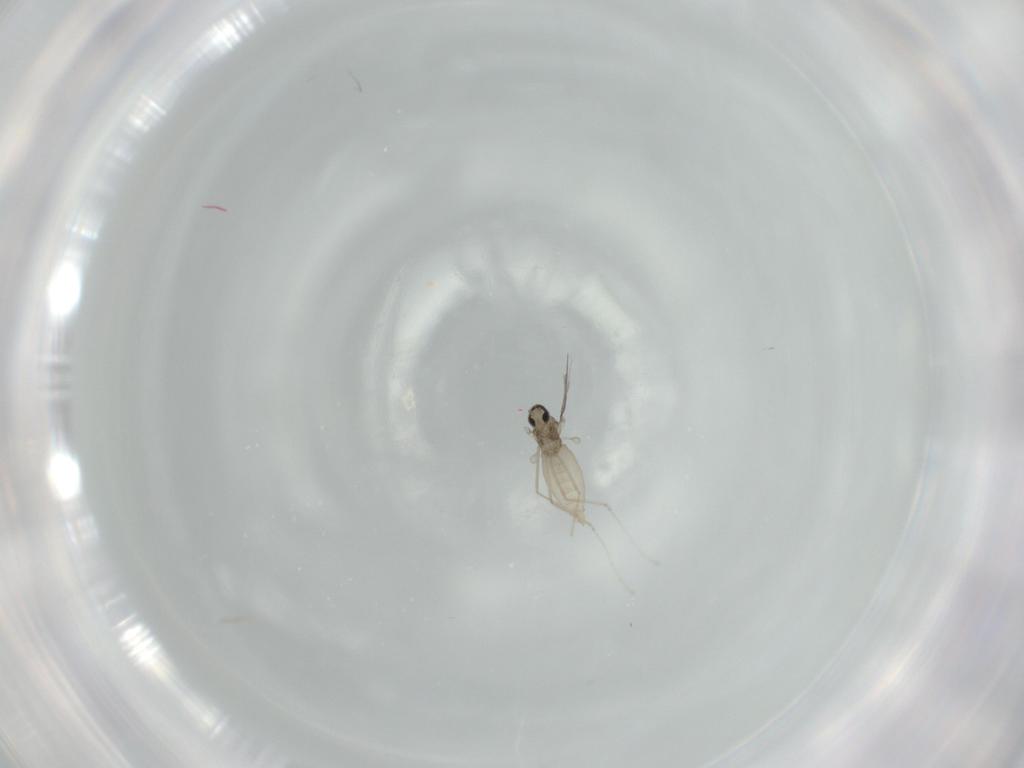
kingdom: Animalia
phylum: Arthropoda
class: Insecta
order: Diptera
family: Cecidomyiidae
